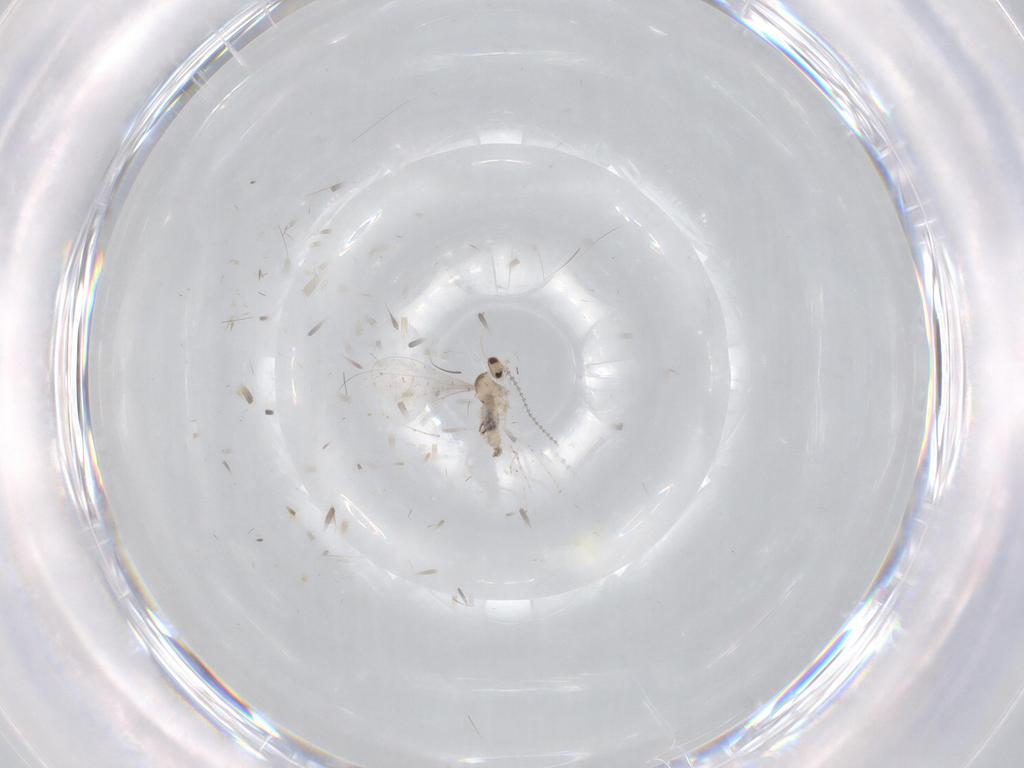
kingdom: Animalia
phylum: Arthropoda
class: Insecta
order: Diptera
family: Cecidomyiidae
